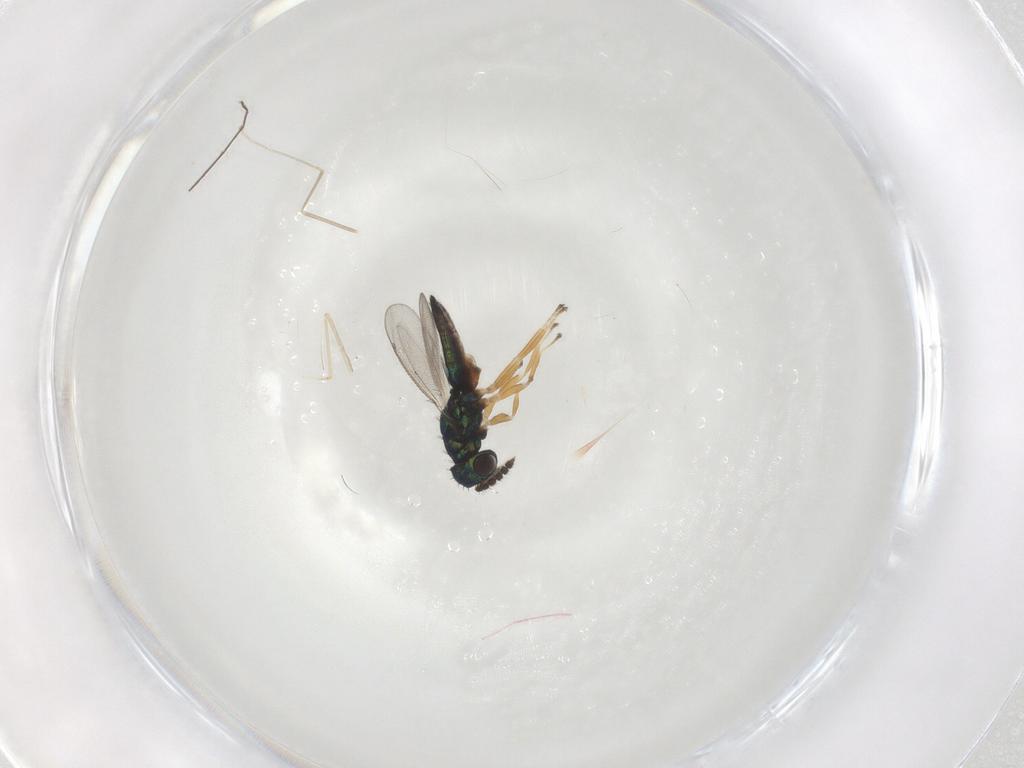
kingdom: Animalia
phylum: Arthropoda
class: Insecta
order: Hymenoptera
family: Eulophidae
